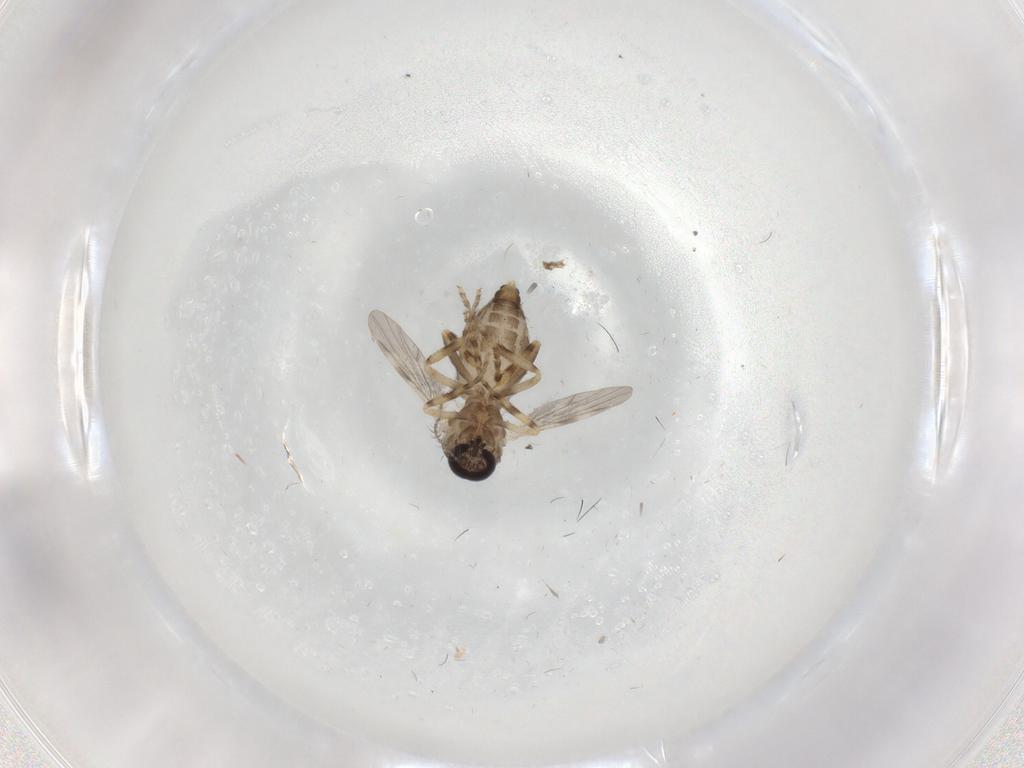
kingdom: Animalia
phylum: Arthropoda
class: Insecta
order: Diptera
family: Ceratopogonidae
